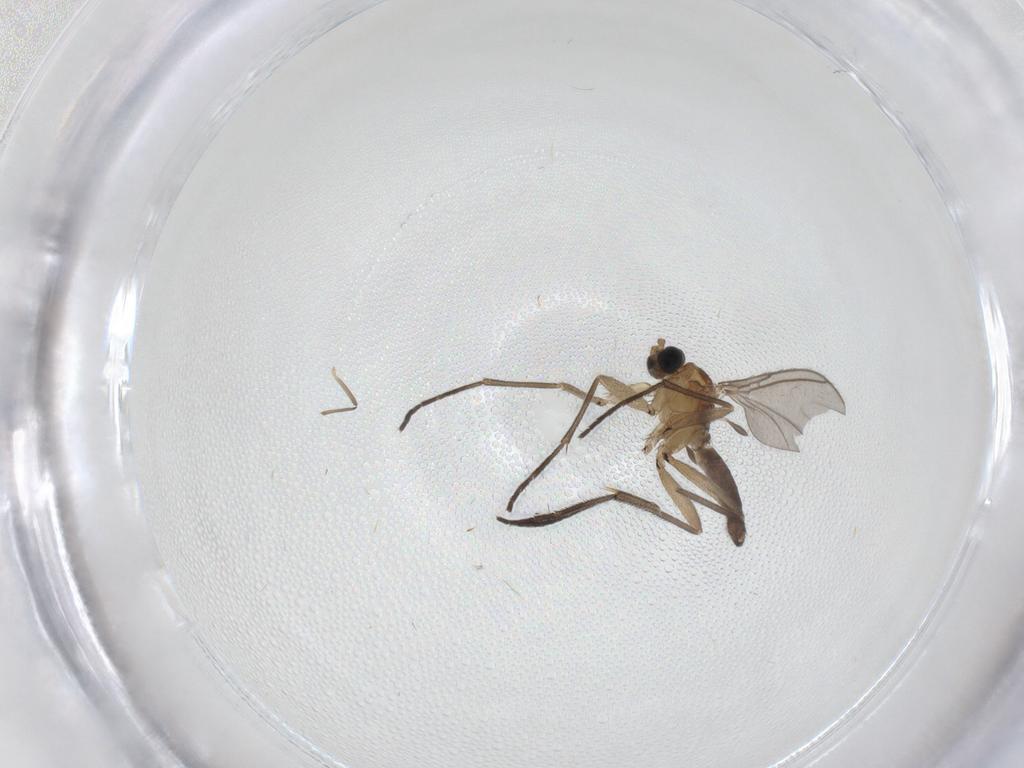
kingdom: Animalia
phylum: Arthropoda
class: Insecta
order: Diptera
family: Sciaridae
